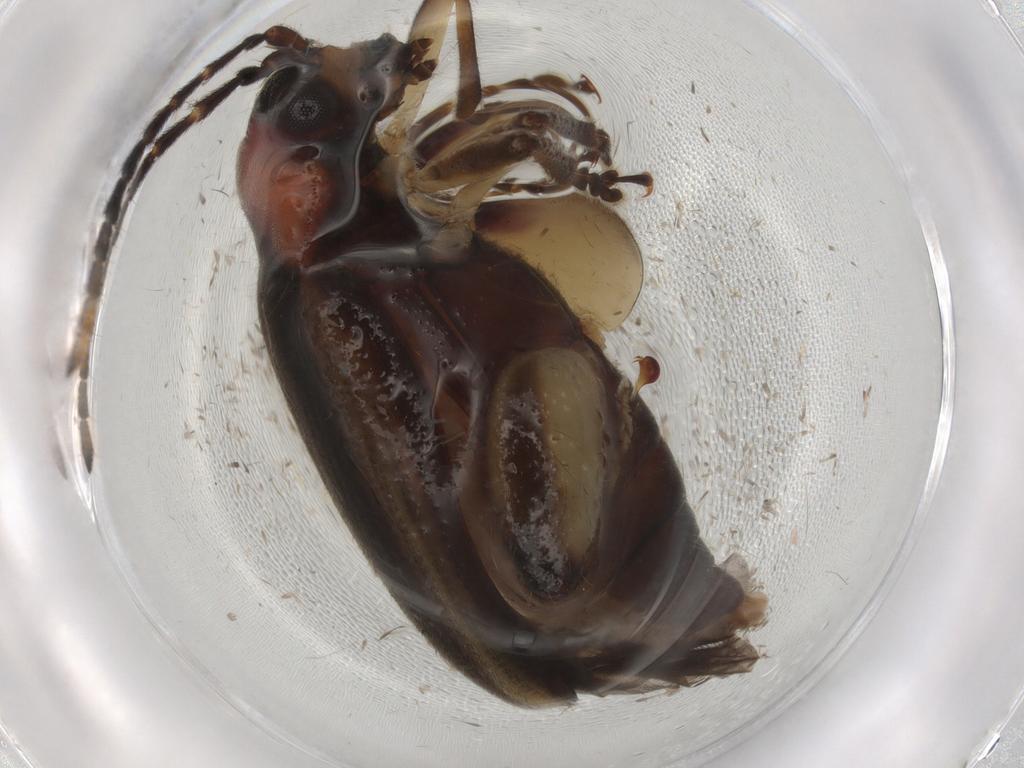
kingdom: Animalia
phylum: Arthropoda
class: Insecta
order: Coleoptera
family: Chrysomelidae
